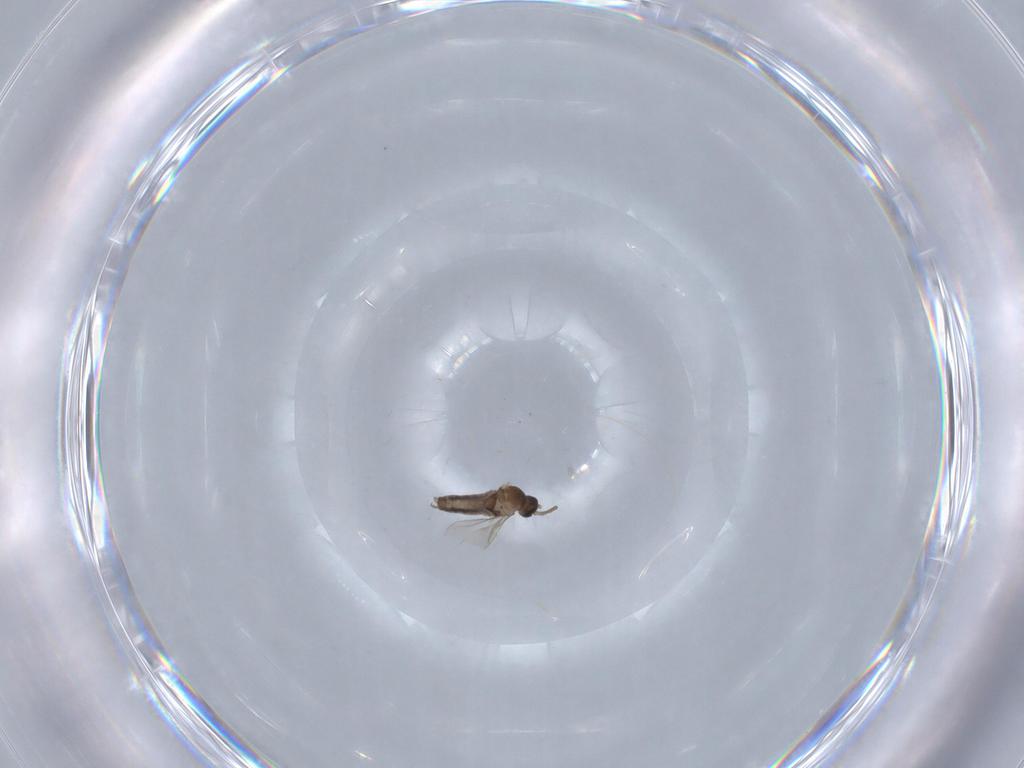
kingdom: Animalia
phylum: Arthropoda
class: Insecta
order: Diptera
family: Cecidomyiidae
